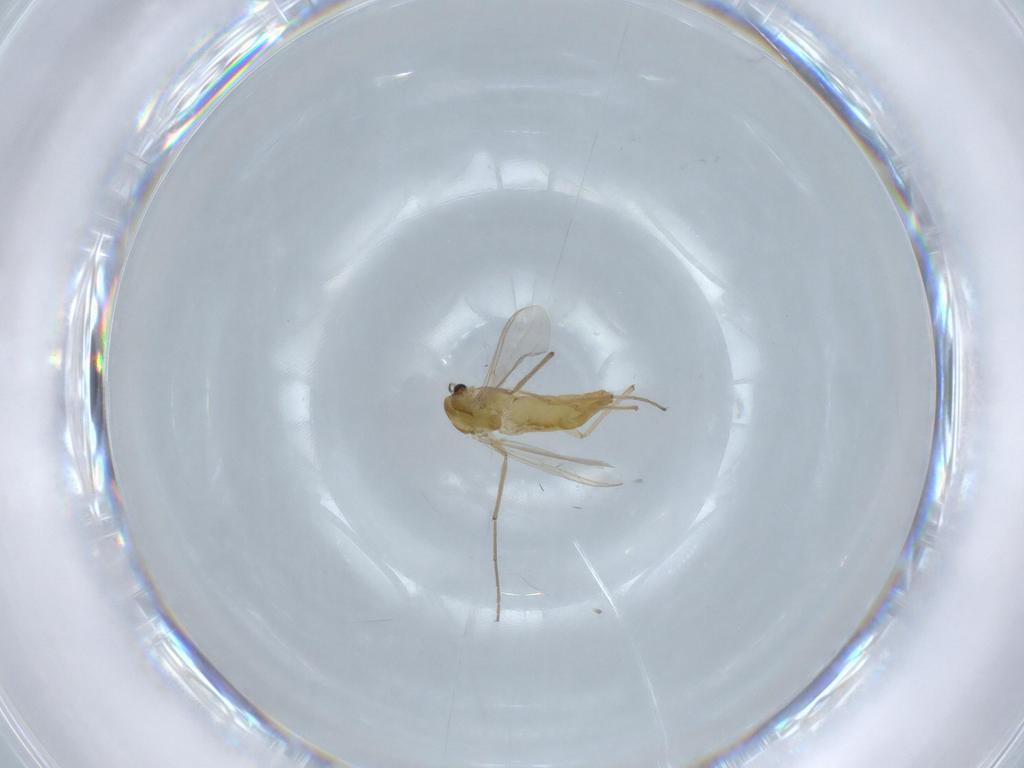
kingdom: Animalia
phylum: Arthropoda
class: Insecta
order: Diptera
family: Chironomidae
